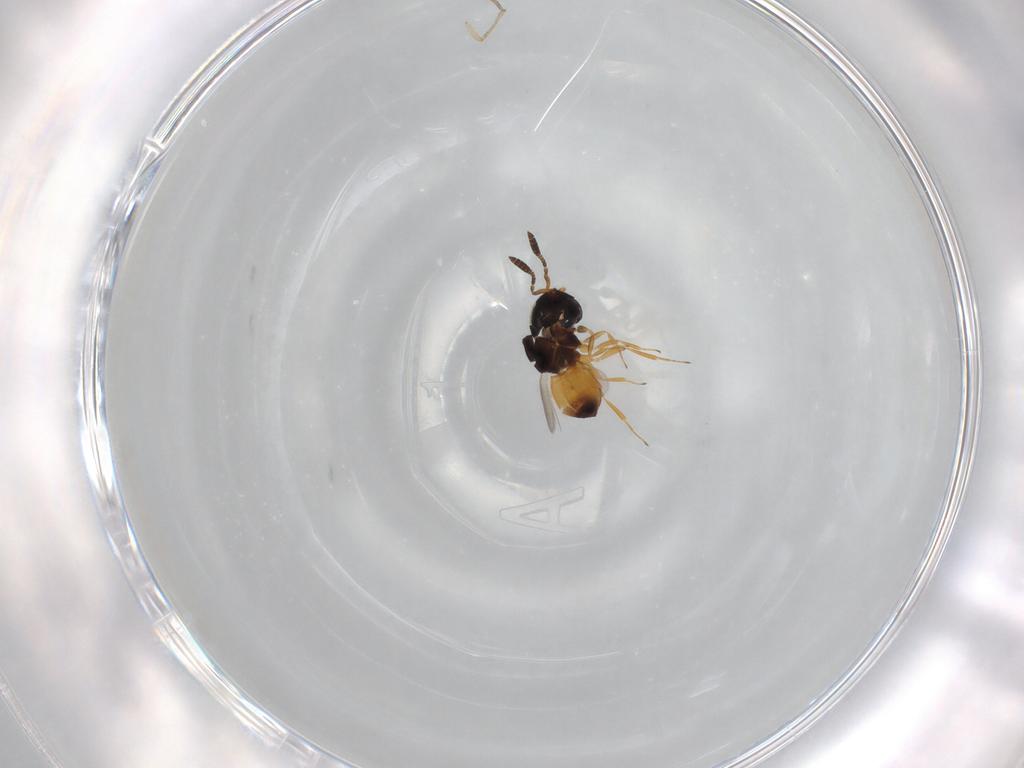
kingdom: Animalia
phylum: Arthropoda
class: Insecta
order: Hymenoptera
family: Scelionidae
